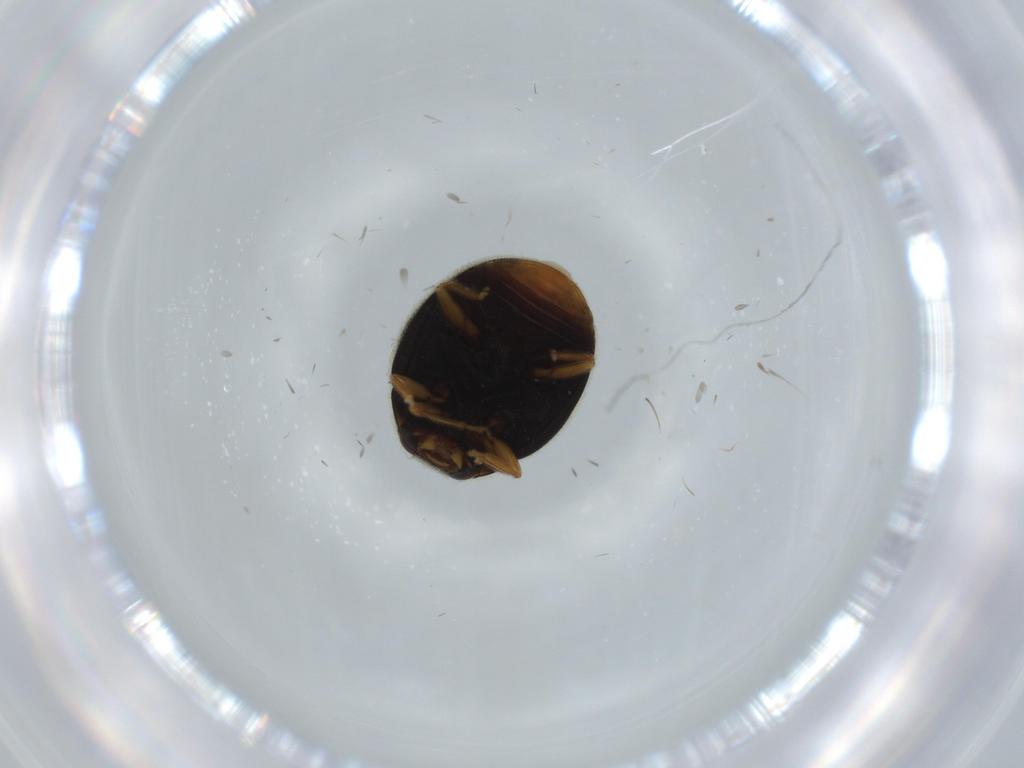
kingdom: Animalia
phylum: Arthropoda
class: Insecta
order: Coleoptera
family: Coccinellidae
